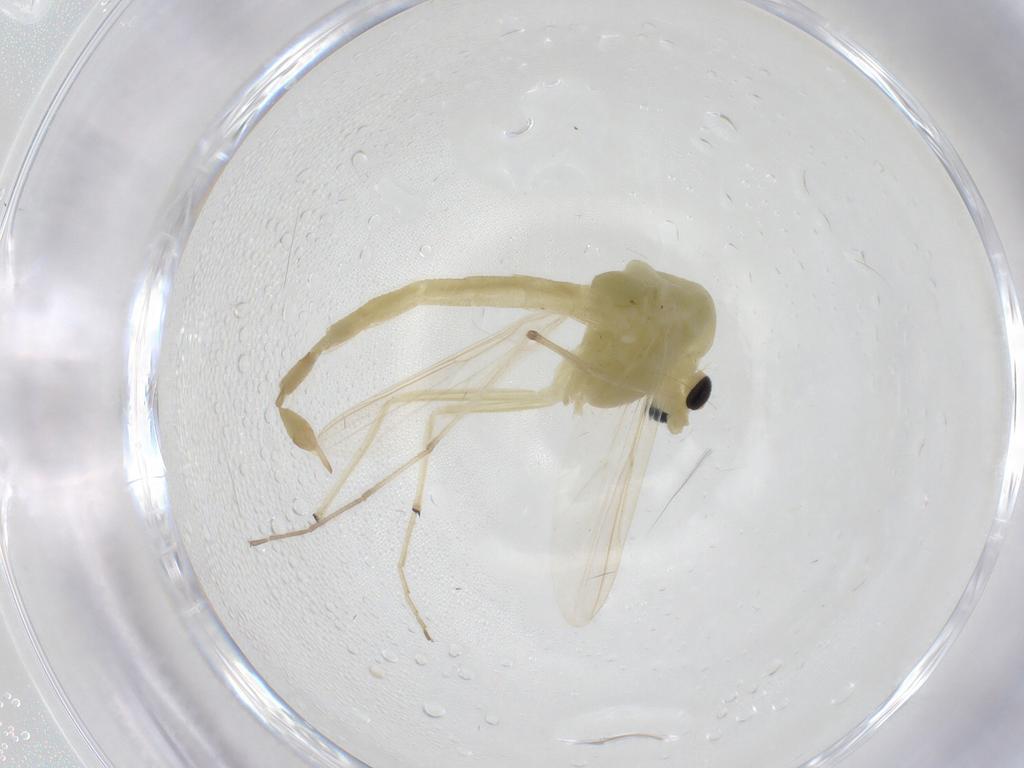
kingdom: Animalia
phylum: Arthropoda
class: Insecta
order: Diptera
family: Chironomidae
